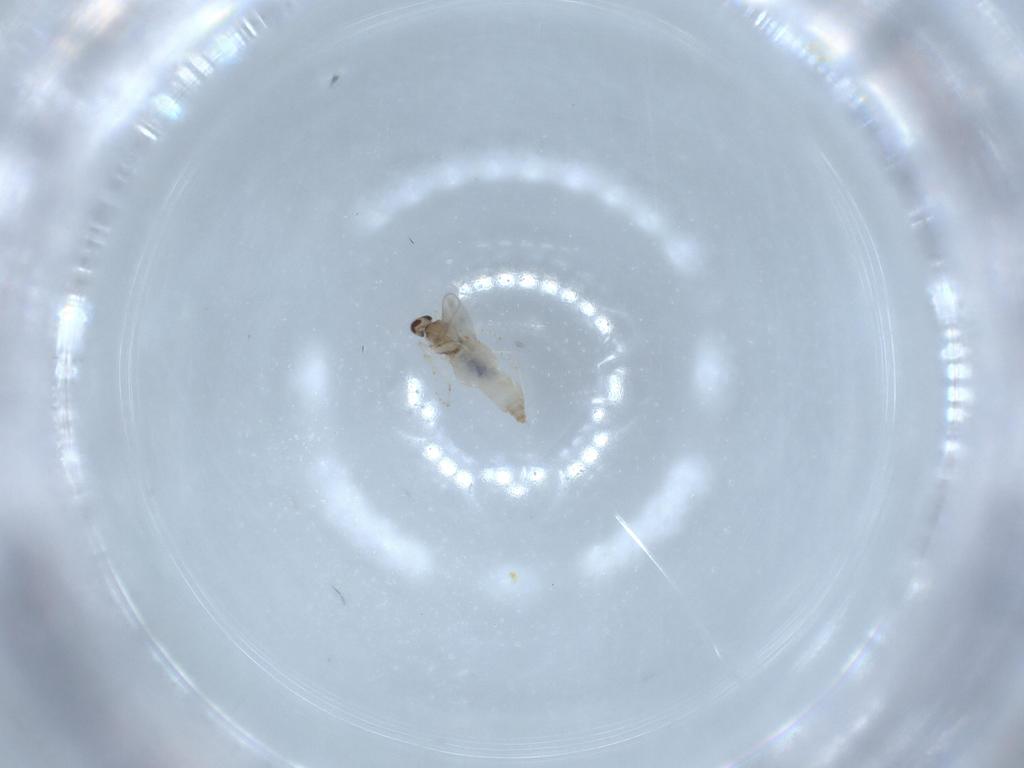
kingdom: Animalia
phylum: Arthropoda
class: Insecta
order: Diptera
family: Cecidomyiidae
